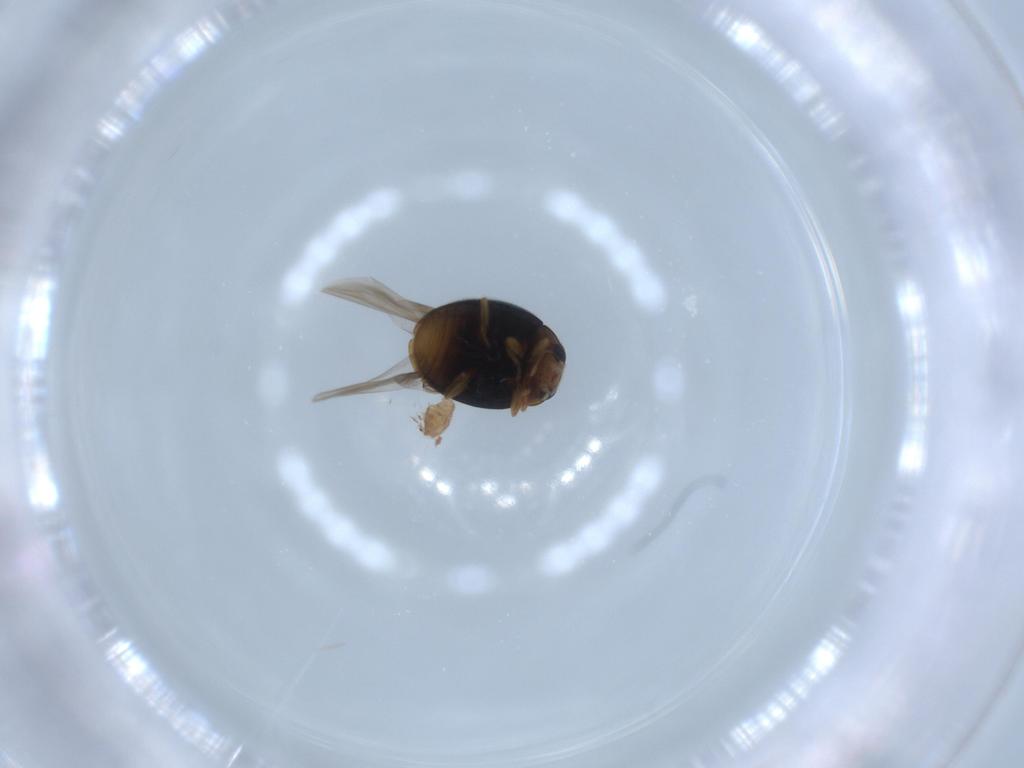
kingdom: Animalia
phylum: Arthropoda
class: Insecta
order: Coleoptera
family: Coccinellidae
